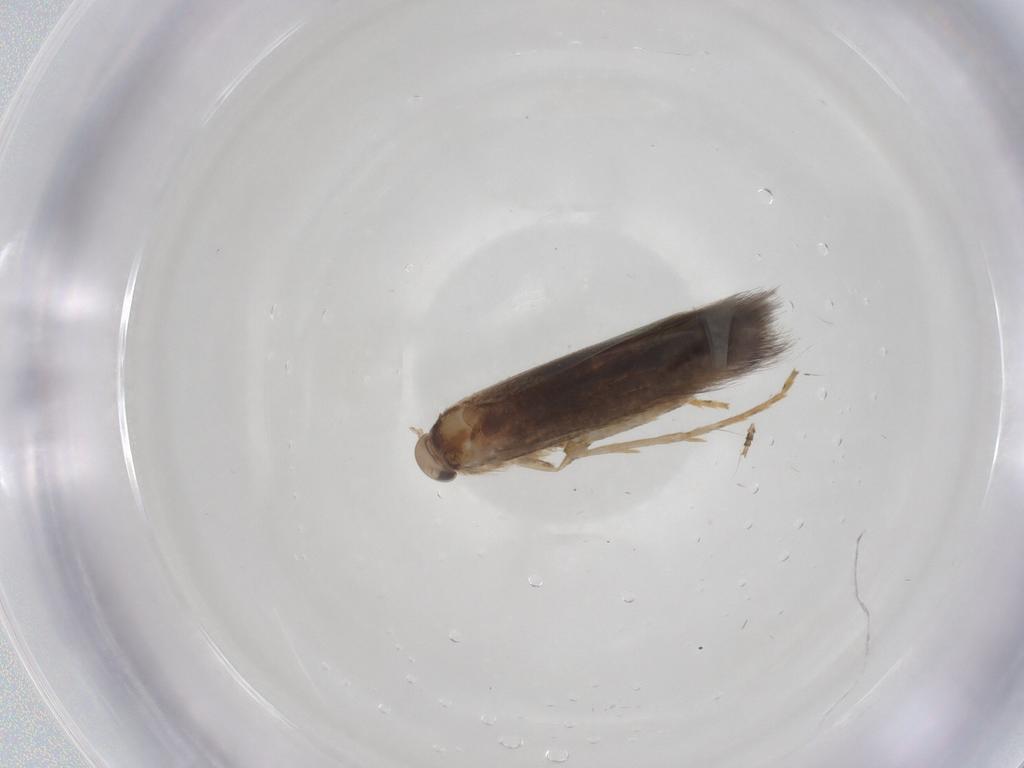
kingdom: Animalia
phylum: Arthropoda
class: Insecta
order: Lepidoptera
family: Elachistidae
